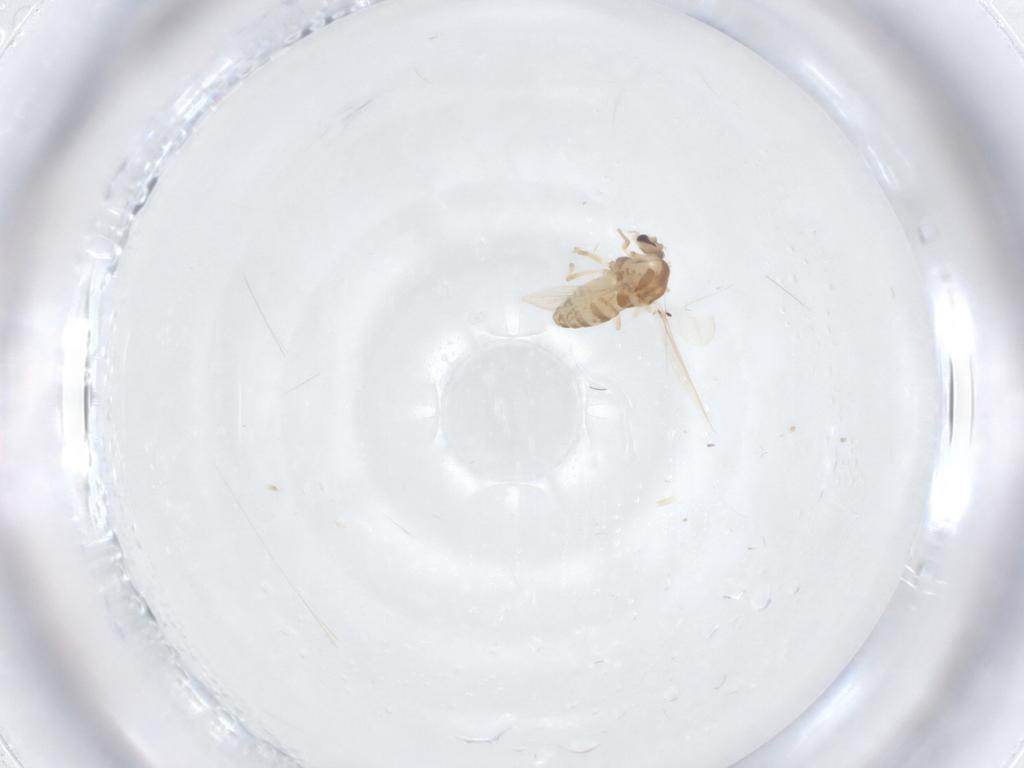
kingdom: Animalia
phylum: Arthropoda
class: Insecta
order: Diptera
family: Chironomidae
